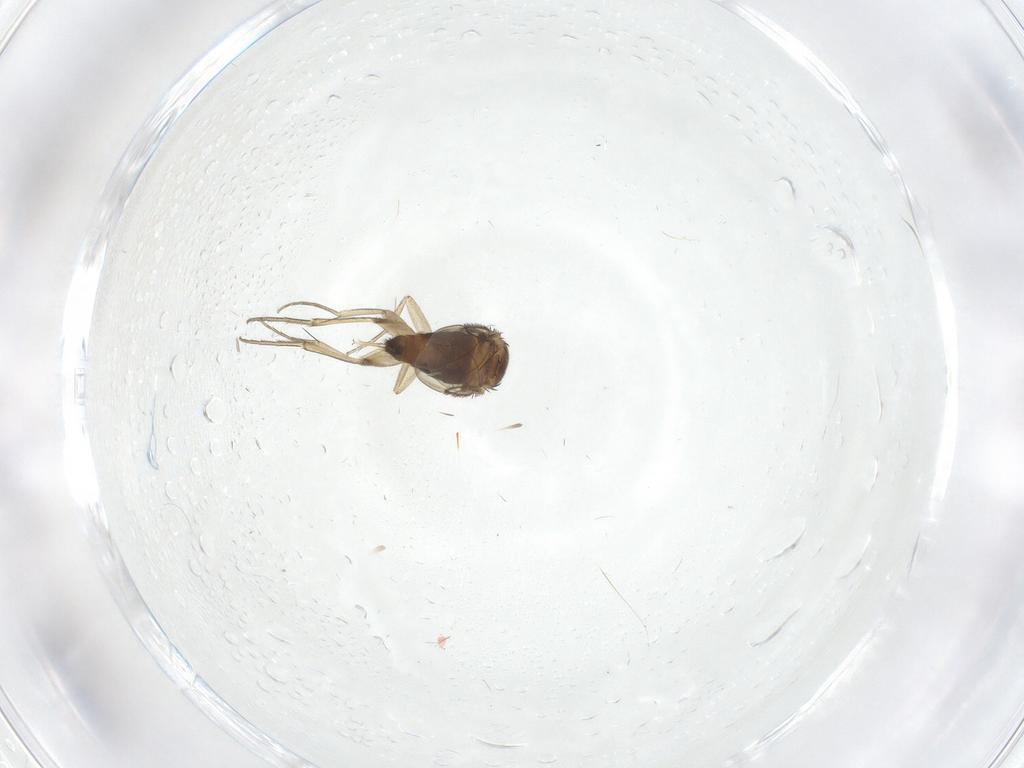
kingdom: Animalia
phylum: Arthropoda
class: Insecta
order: Diptera
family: Phoridae
